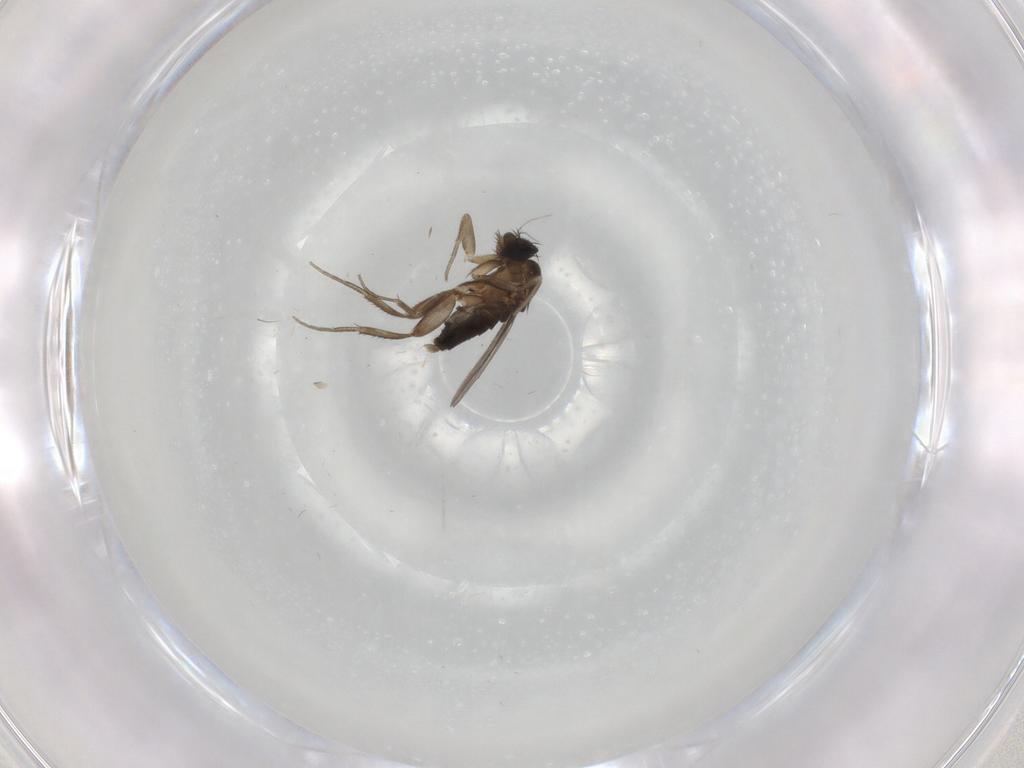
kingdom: Animalia
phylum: Arthropoda
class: Insecta
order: Diptera
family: Phoridae
